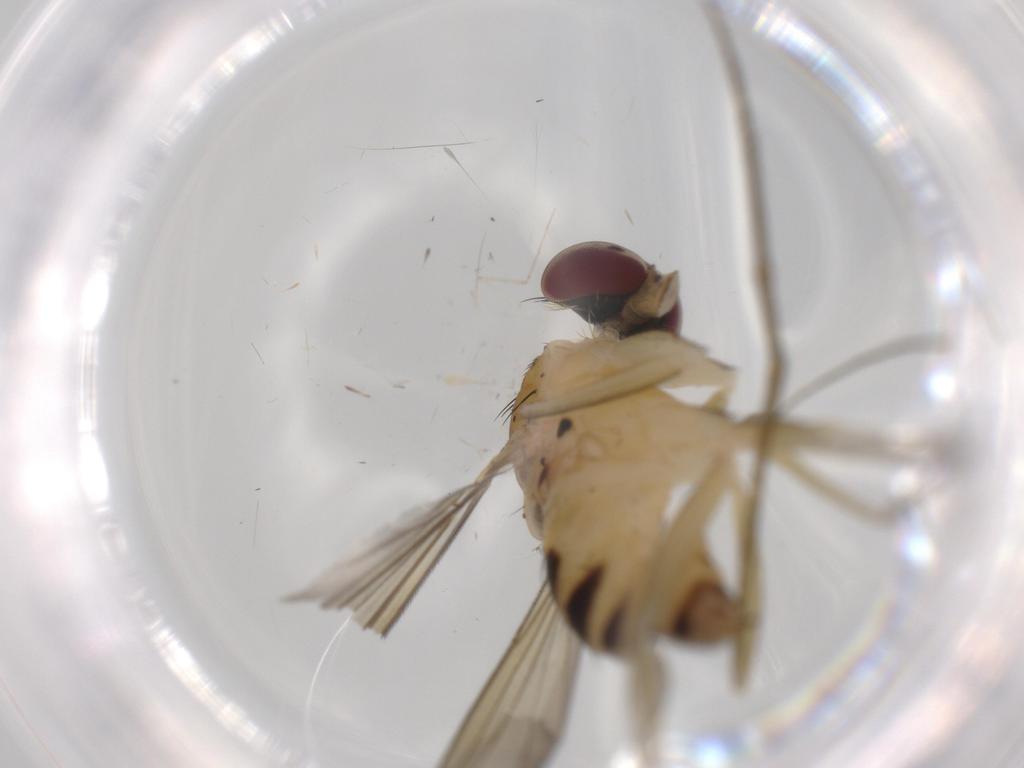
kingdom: Animalia
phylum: Arthropoda
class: Insecta
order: Diptera
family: Dolichopodidae
